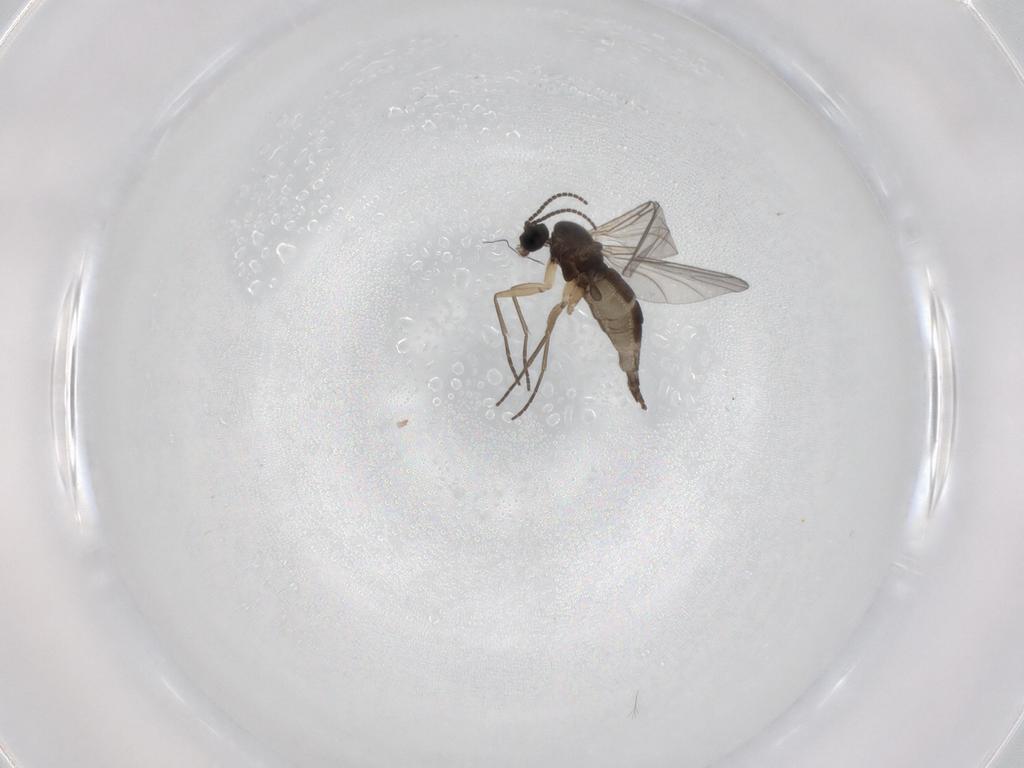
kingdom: Animalia
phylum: Arthropoda
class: Insecta
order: Diptera
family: Sciaridae
